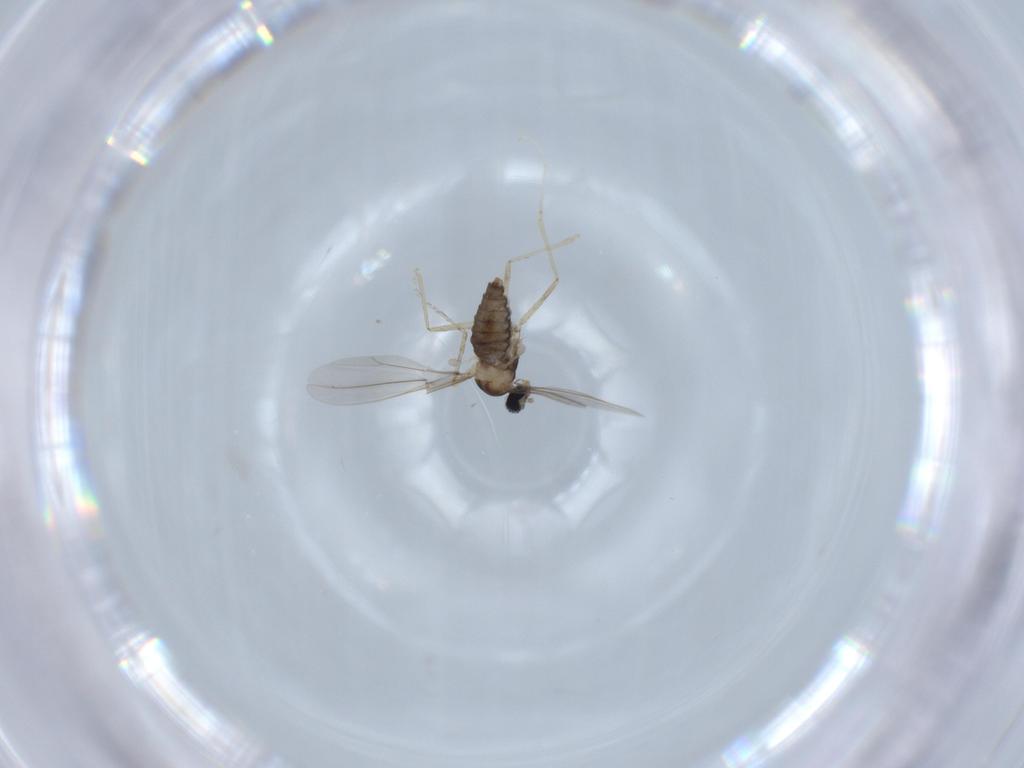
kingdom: Animalia
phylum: Arthropoda
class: Insecta
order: Diptera
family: Cecidomyiidae
